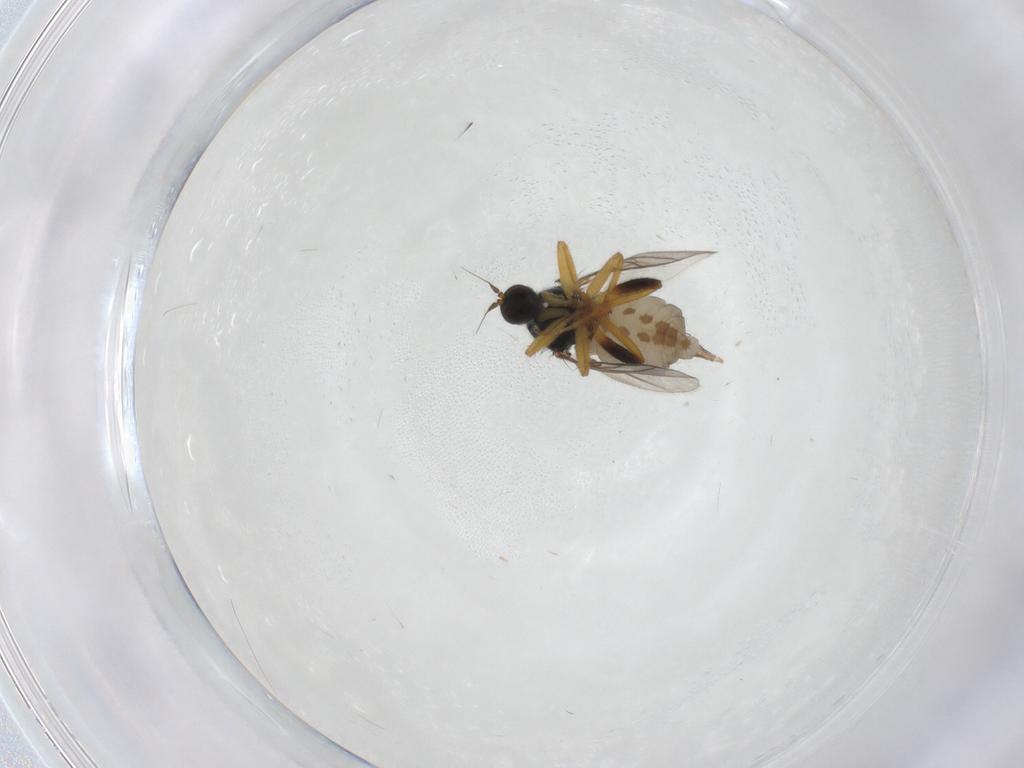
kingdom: Animalia
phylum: Arthropoda
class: Insecta
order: Diptera
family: Hybotidae
